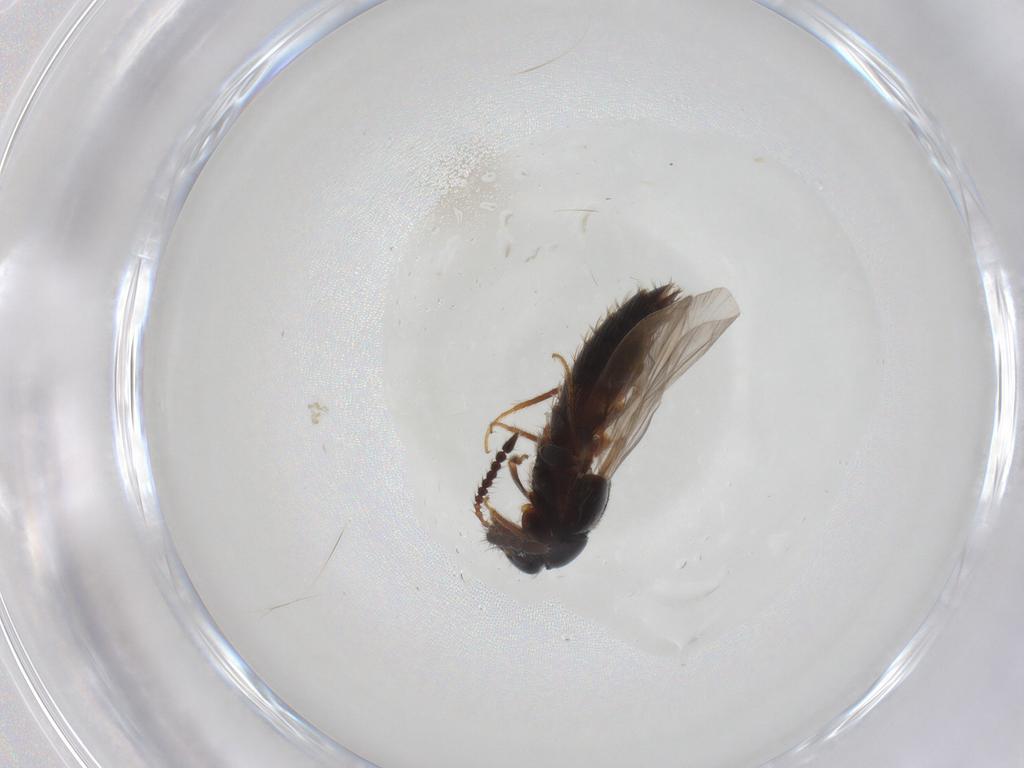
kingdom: Animalia
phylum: Arthropoda
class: Insecta
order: Coleoptera
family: Staphylinidae
